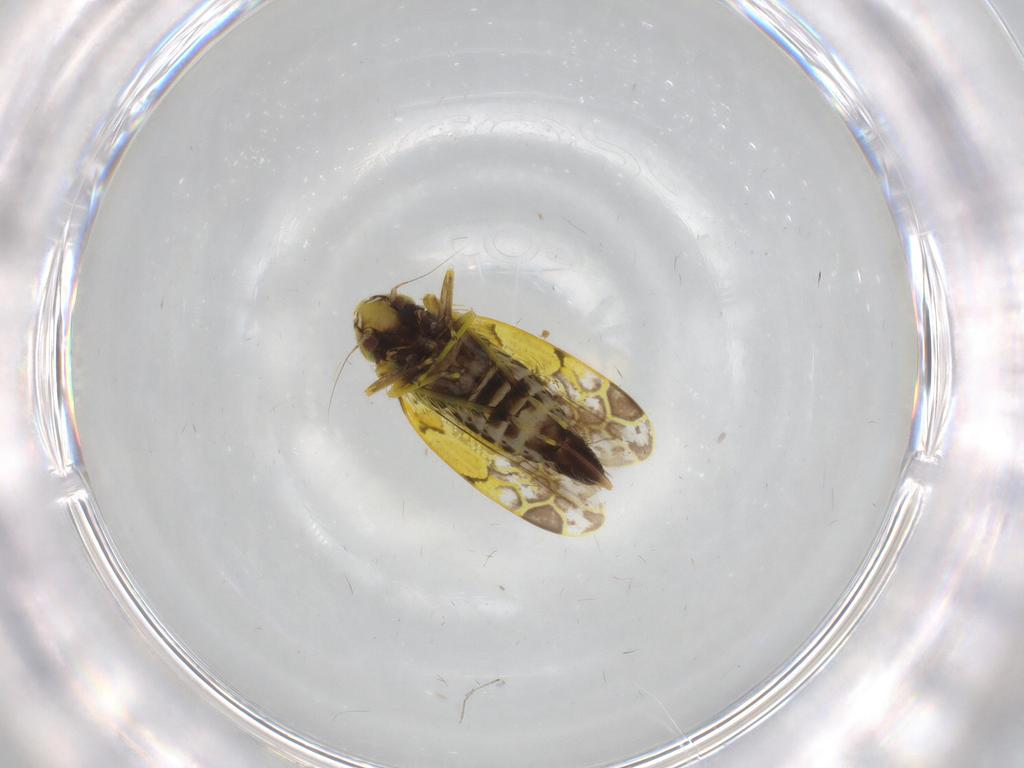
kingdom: Animalia
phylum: Arthropoda
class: Insecta
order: Hemiptera
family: Cicadellidae
